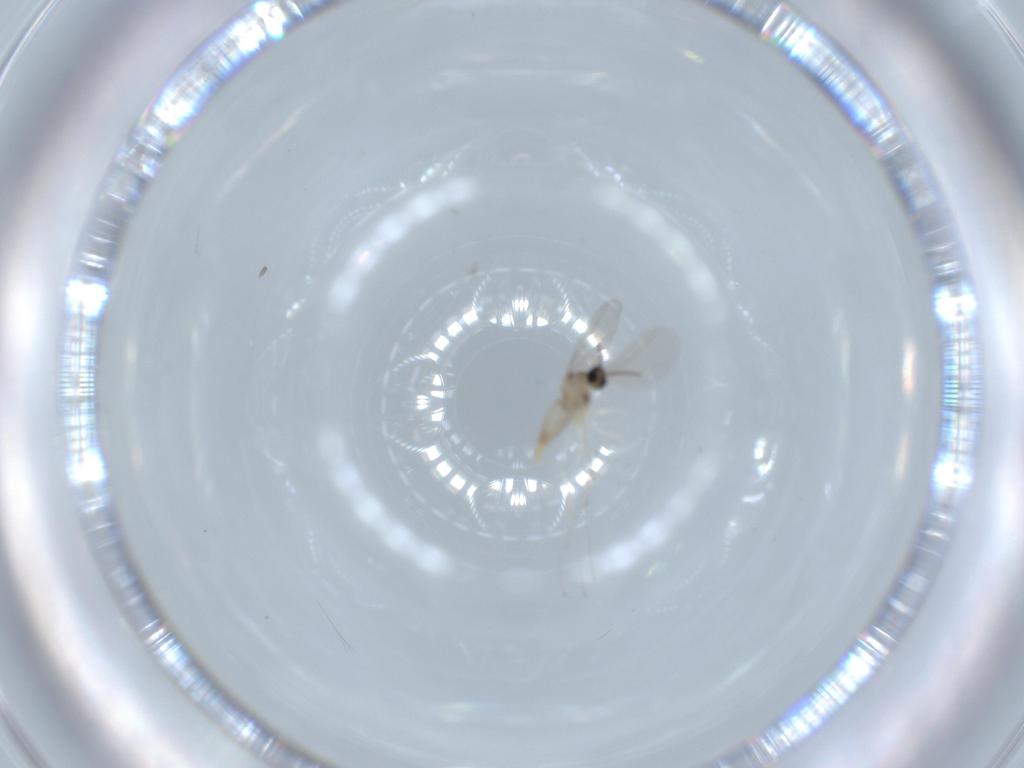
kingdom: Animalia
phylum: Arthropoda
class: Insecta
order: Diptera
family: Cecidomyiidae
